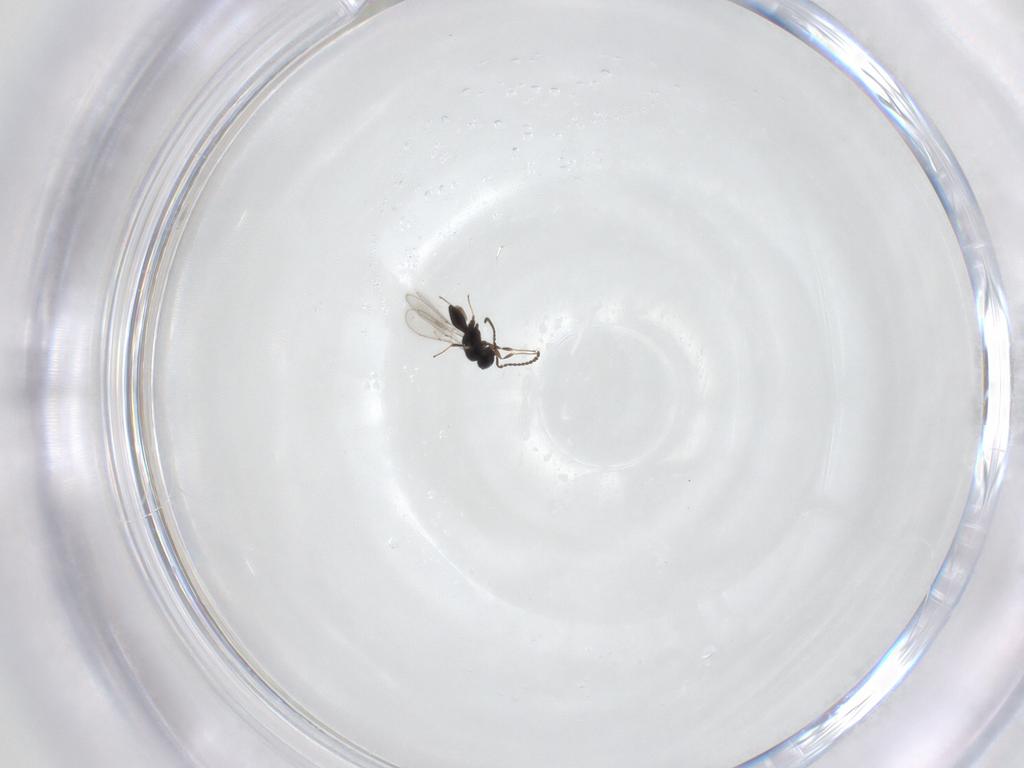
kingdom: Animalia
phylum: Arthropoda
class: Insecta
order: Hymenoptera
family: Scelionidae
